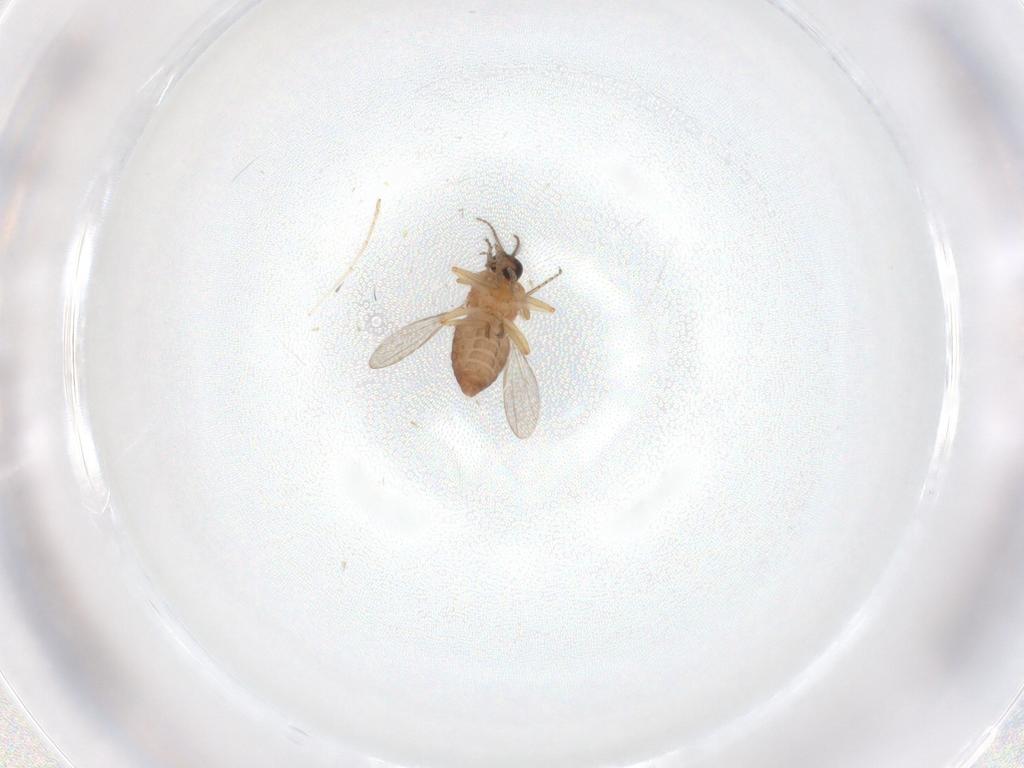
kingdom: Animalia
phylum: Arthropoda
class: Insecta
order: Diptera
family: Ceratopogonidae
